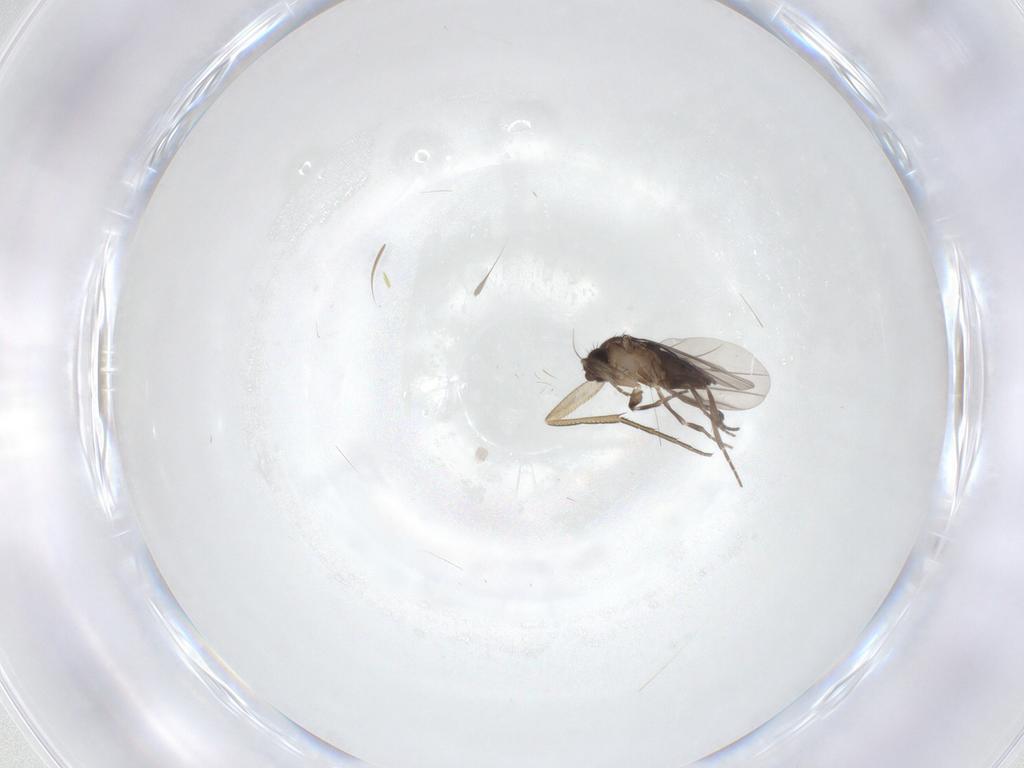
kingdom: Animalia
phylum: Arthropoda
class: Insecta
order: Diptera
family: Phoridae
